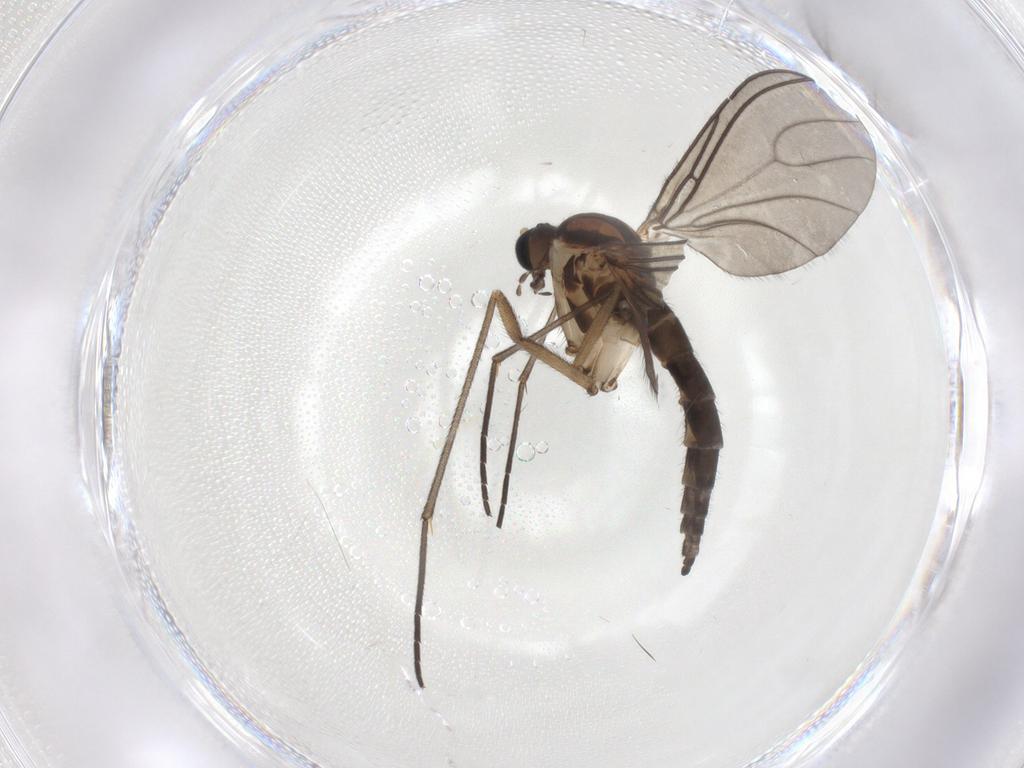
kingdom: Animalia
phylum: Arthropoda
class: Insecta
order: Diptera
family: Sciaridae
